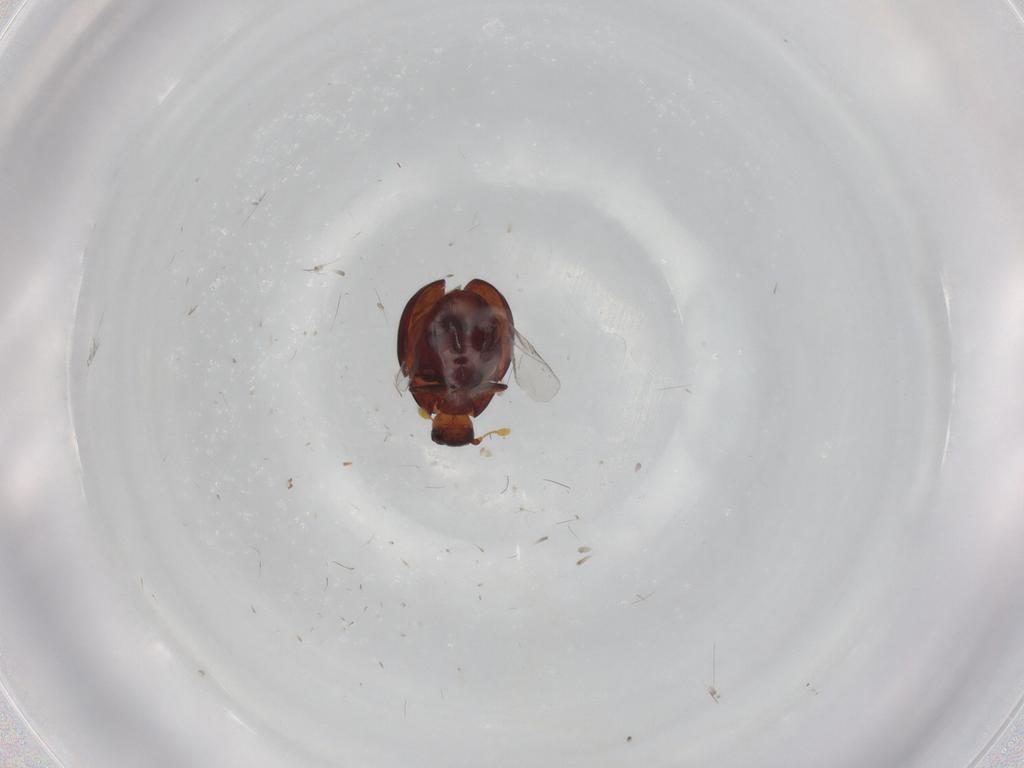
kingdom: Animalia
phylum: Arthropoda
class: Insecta
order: Coleoptera
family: Histeridae
